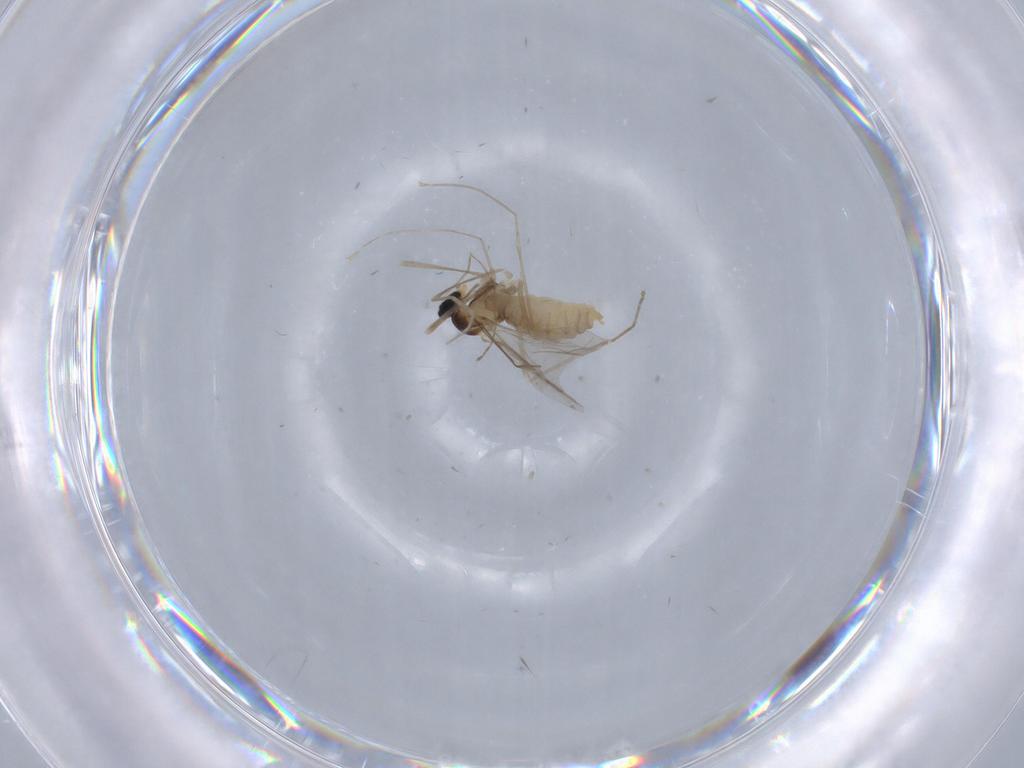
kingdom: Animalia
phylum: Arthropoda
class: Insecta
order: Diptera
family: Cecidomyiidae
